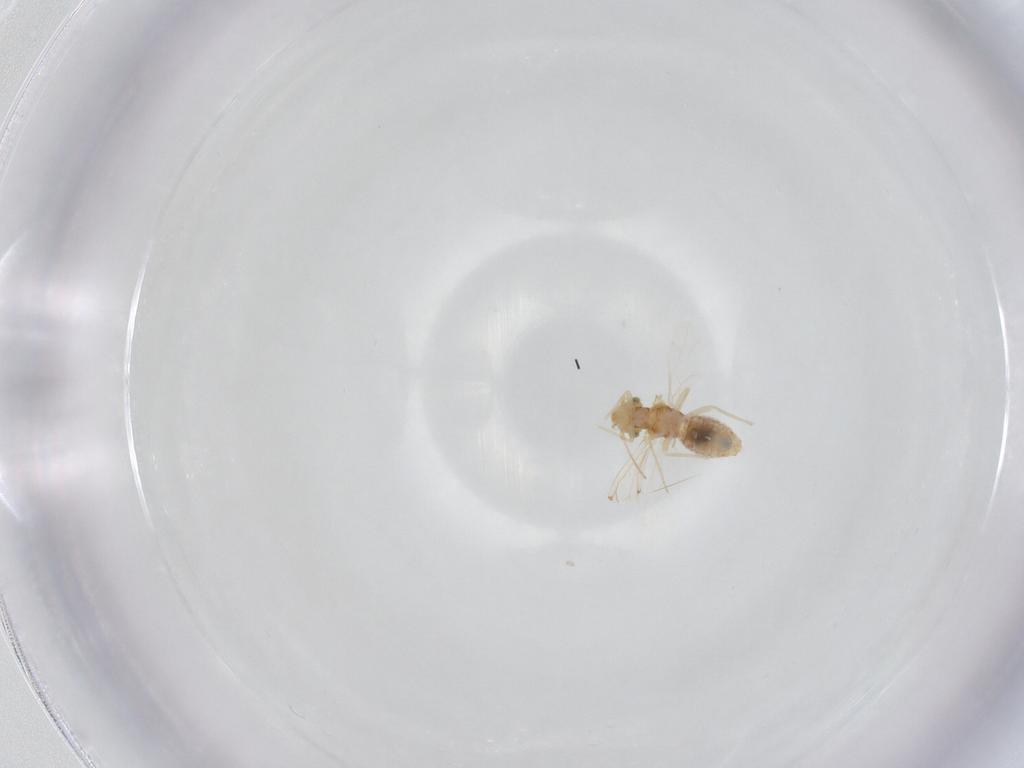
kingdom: Animalia
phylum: Arthropoda
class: Insecta
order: Psocodea
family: Lachesillidae
